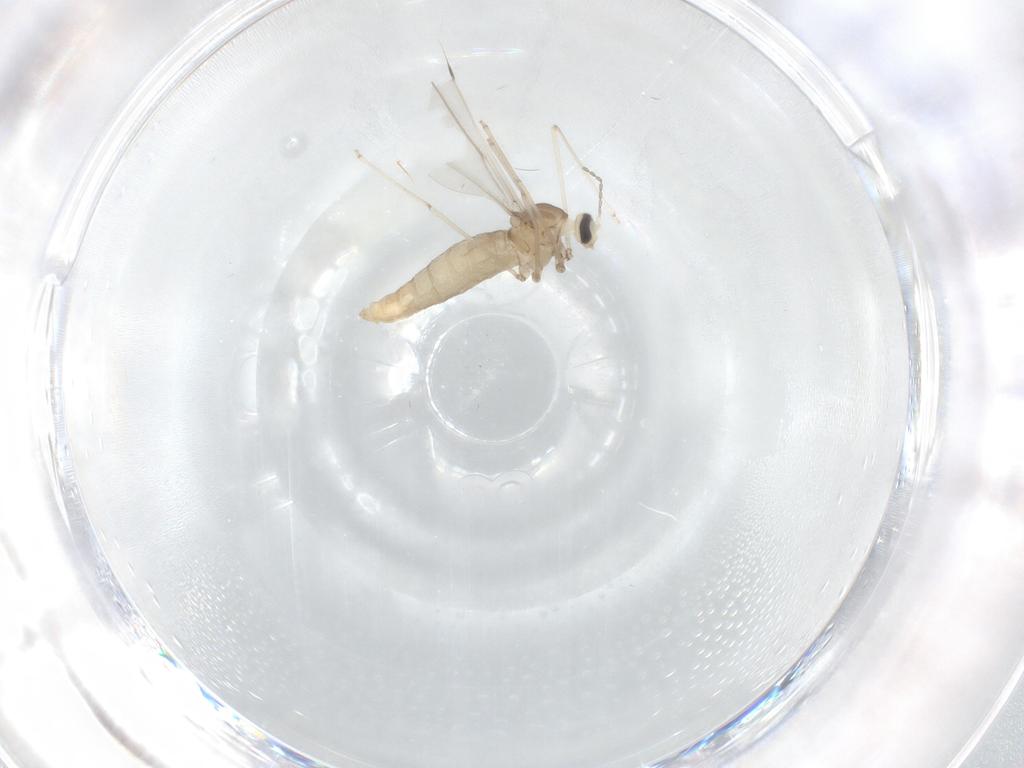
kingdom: Animalia
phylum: Arthropoda
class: Insecta
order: Diptera
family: Cecidomyiidae
